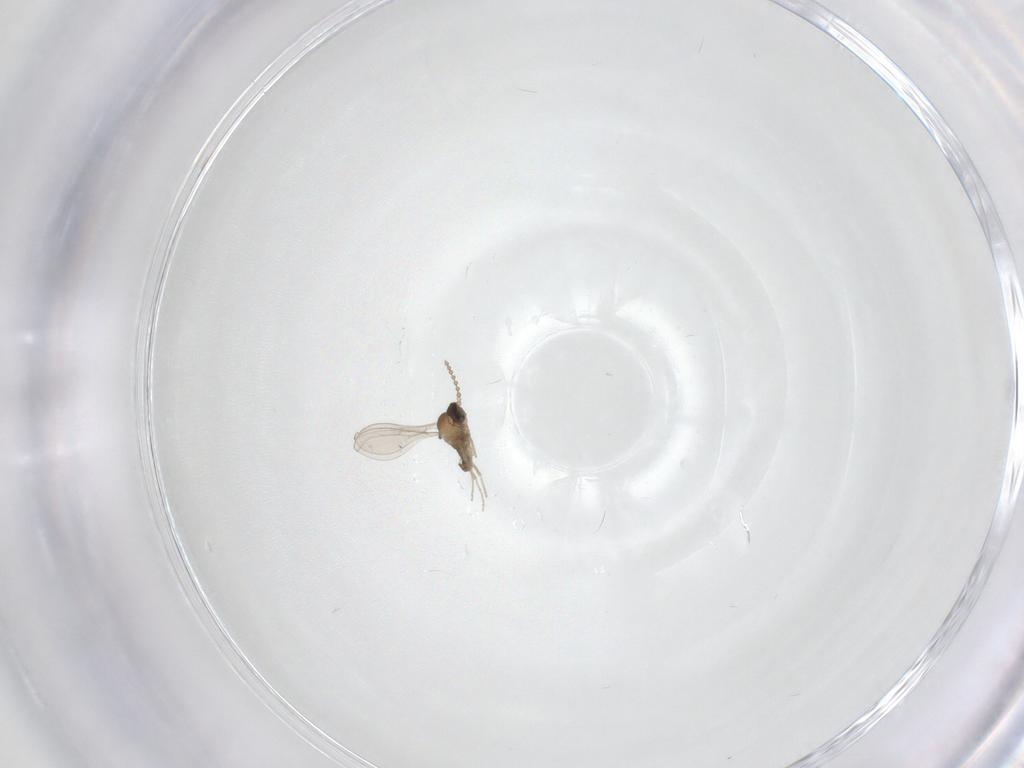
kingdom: Animalia
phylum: Arthropoda
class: Insecta
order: Diptera
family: Cecidomyiidae
